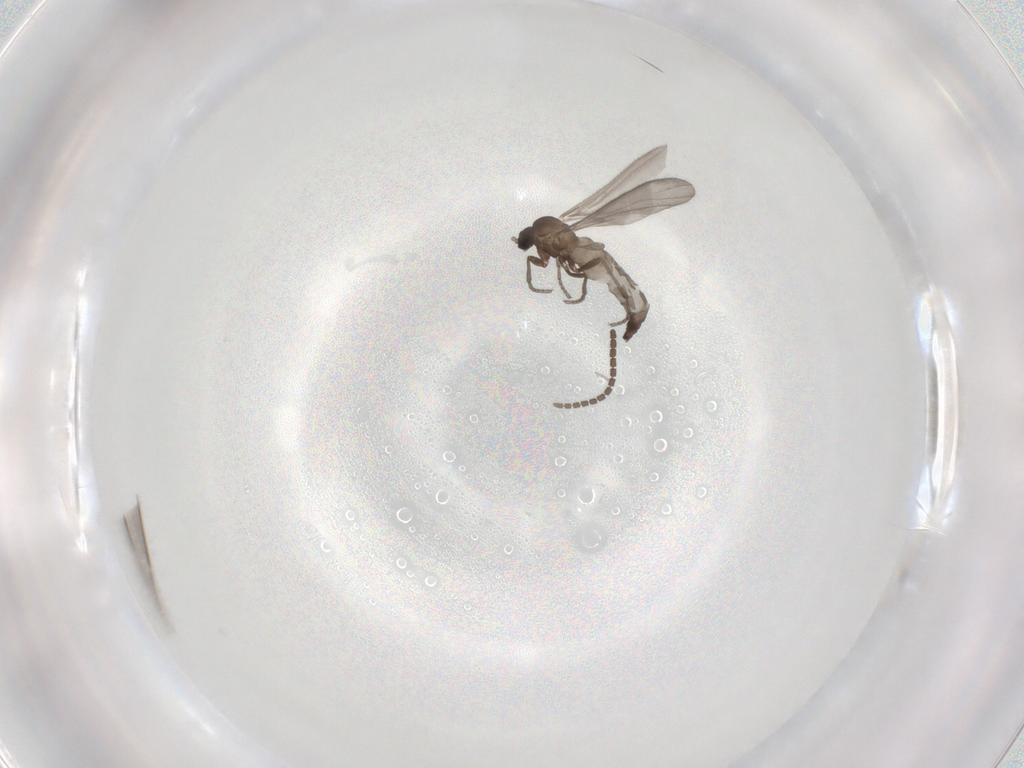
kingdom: Animalia
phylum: Arthropoda
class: Insecta
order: Diptera
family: Sciaridae
